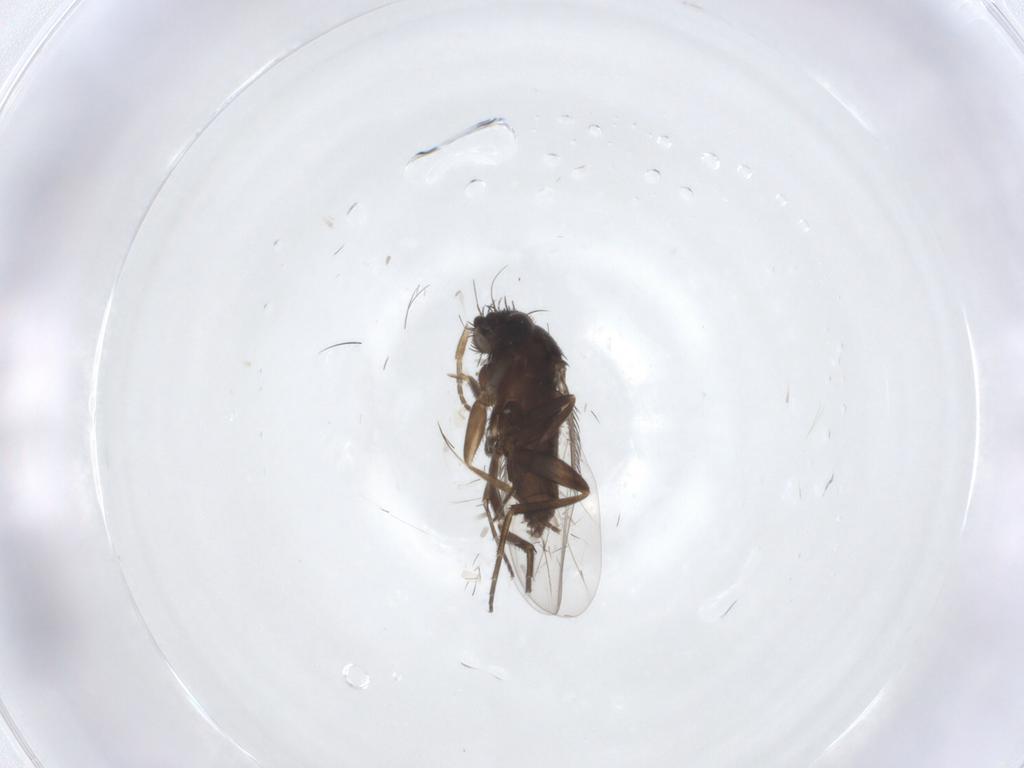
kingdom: Animalia
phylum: Arthropoda
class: Insecta
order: Diptera
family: Phoridae
